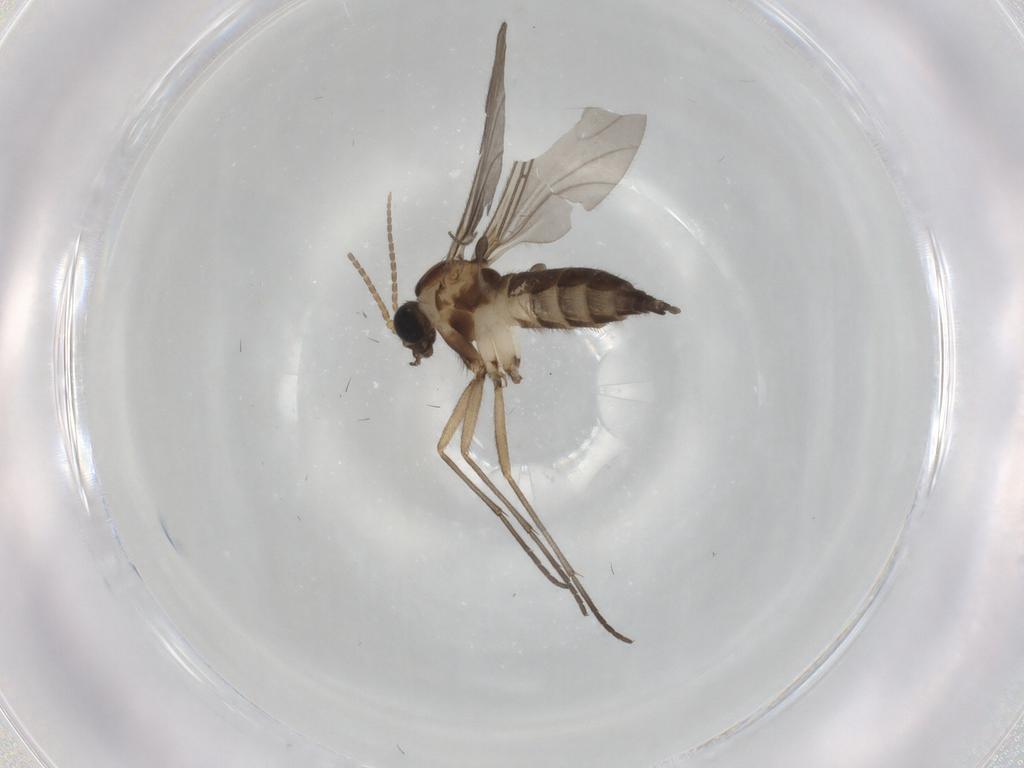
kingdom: Animalia
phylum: Arthropoda
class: Insecta
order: Diptera
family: Sciaridae
